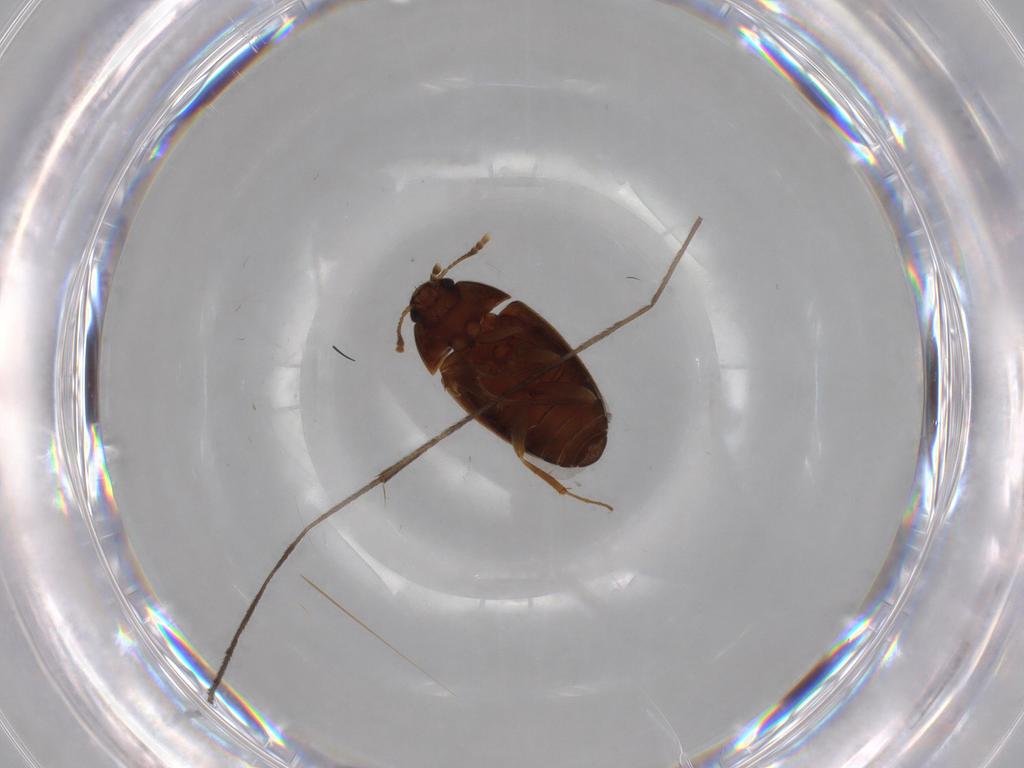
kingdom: Animalia
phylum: Arthropoda
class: Insecta
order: Coleoptera
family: Mycetophagidae
